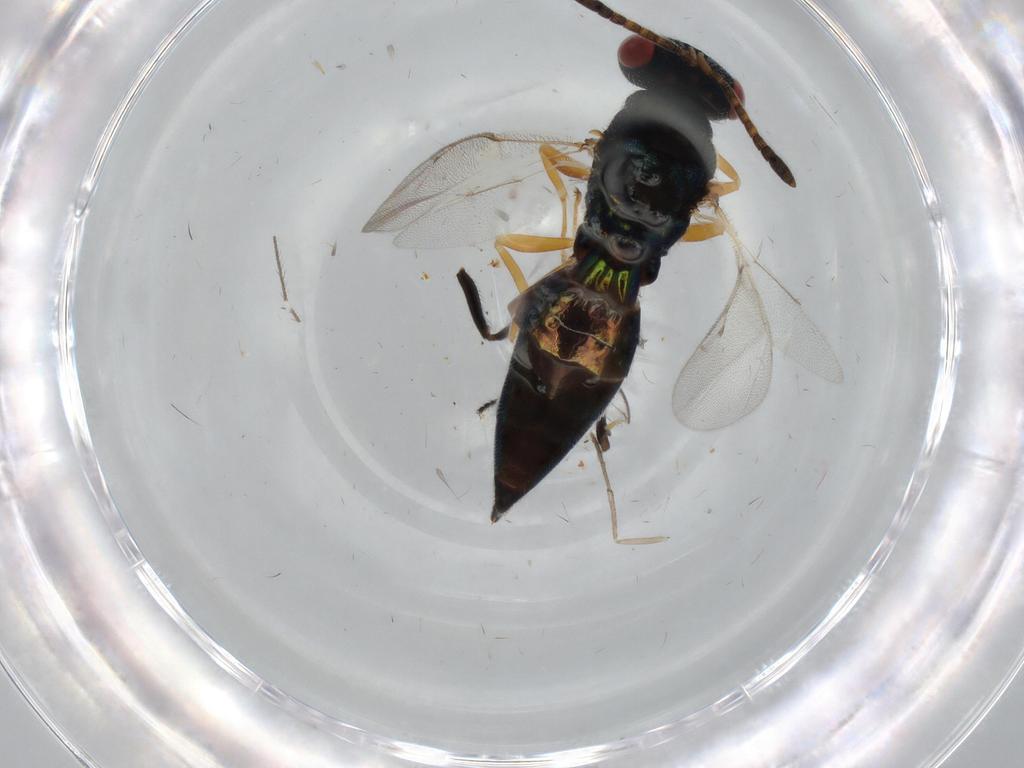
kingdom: Animalia
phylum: Arthropoda
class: Insecta
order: Hymenoptera
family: Pteromalidae
